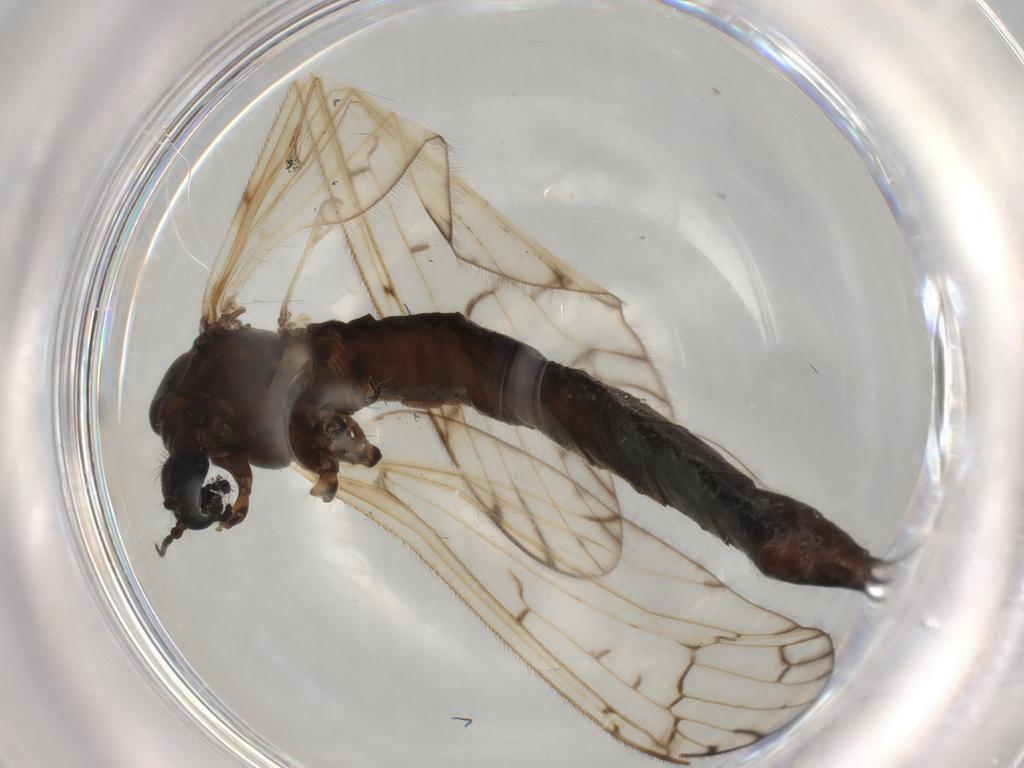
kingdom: Animalia
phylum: Arthropoda
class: Insecta
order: Diptera
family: Limoniidae
